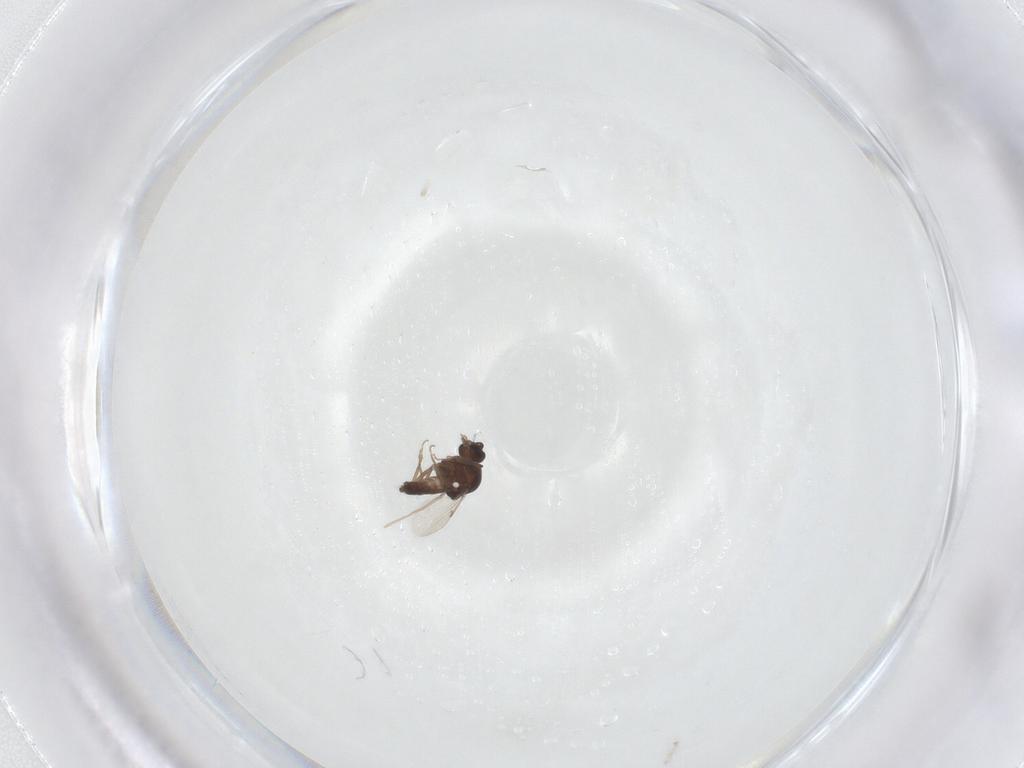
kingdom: Animalia
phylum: Arthropoda
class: Insecta
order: Diptera
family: Ceratopogonidae
